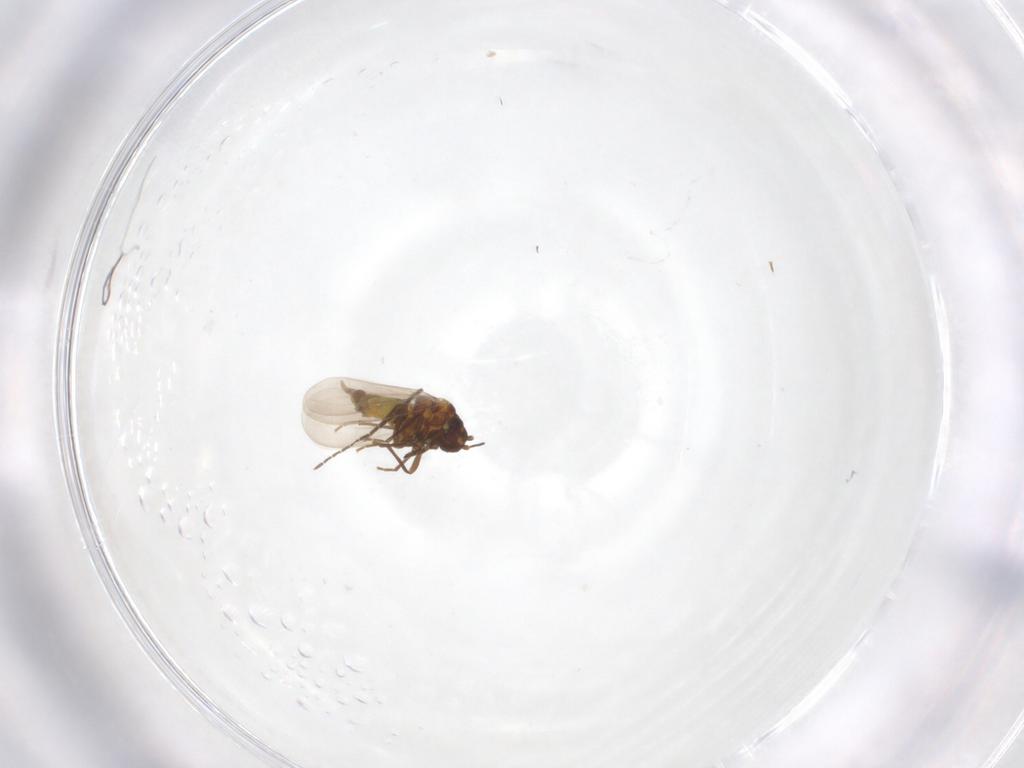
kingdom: Animalia
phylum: Arthropoda
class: Insecta
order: Hemiptera
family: Aleyrodidae
